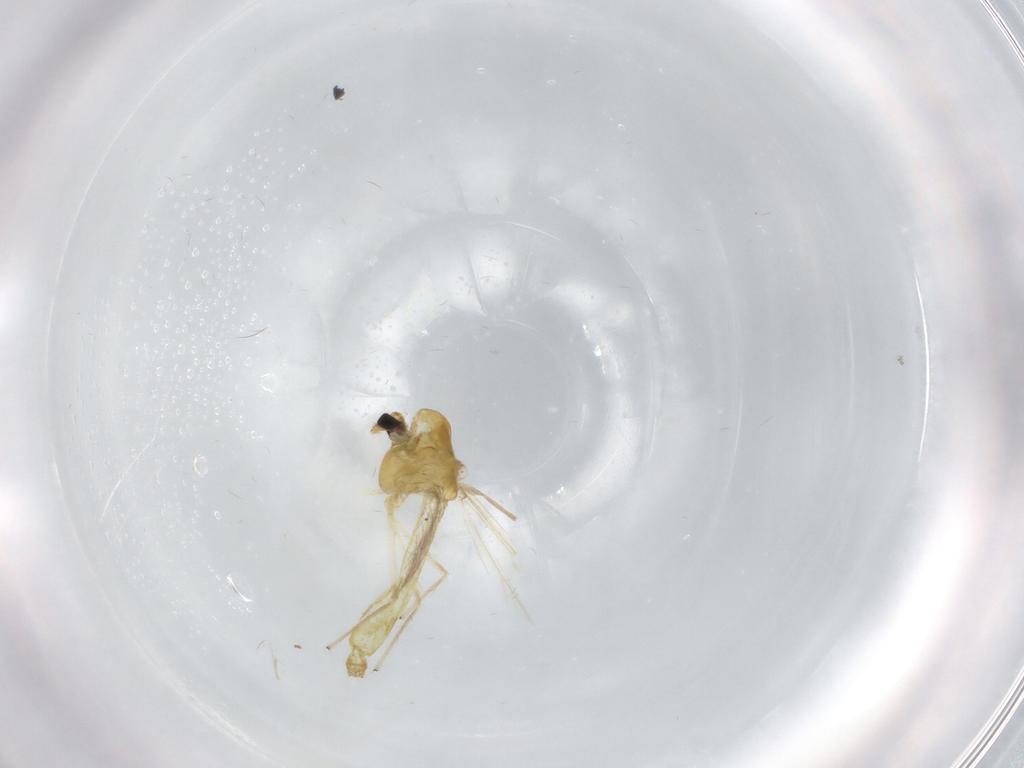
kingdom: Animalia
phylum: Arthropoda
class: Insecta
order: Diptera
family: Chironomidae
